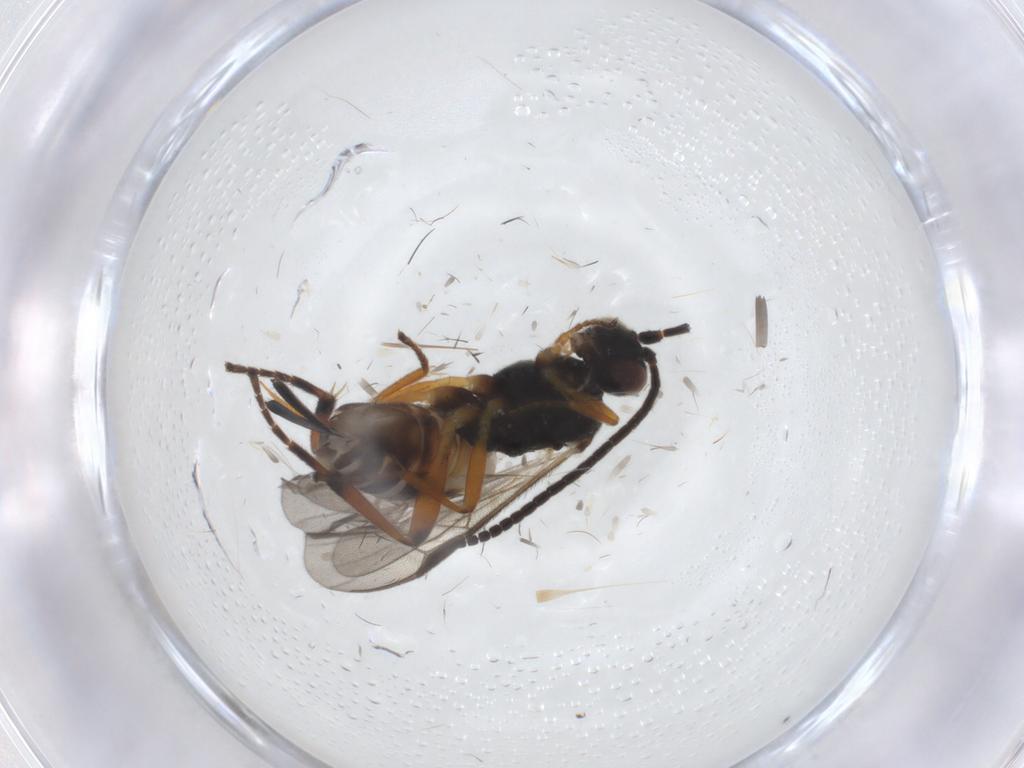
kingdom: Animalia
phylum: Arthropoda
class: Insecta
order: Hymenoptera
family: Braconidae
